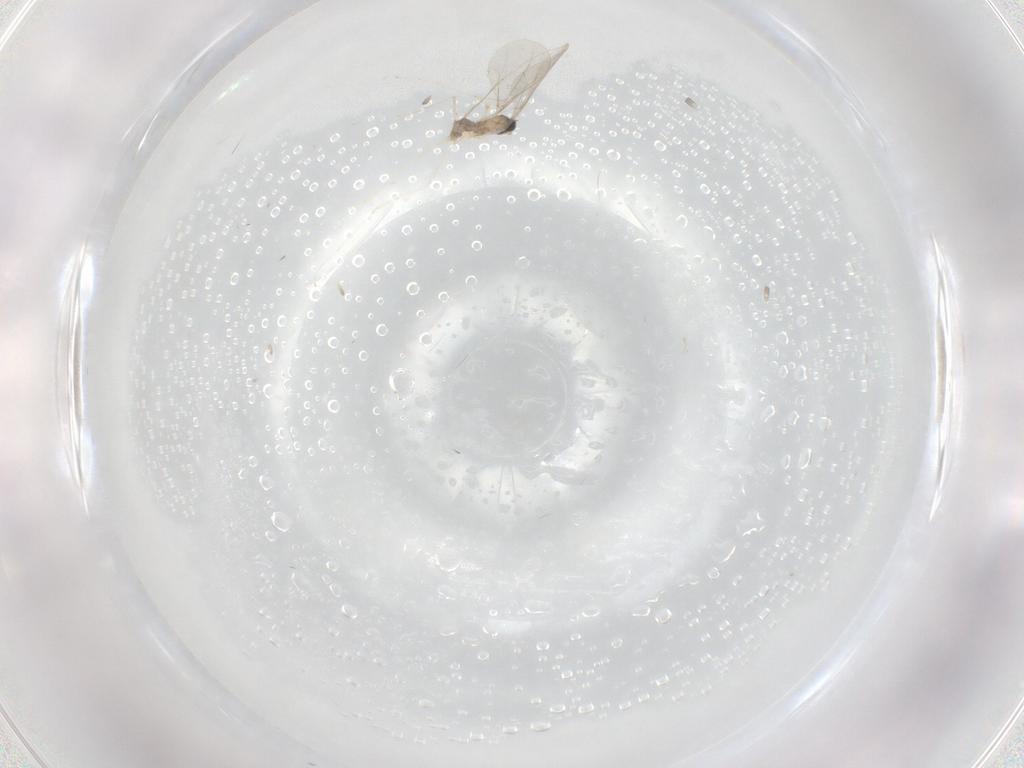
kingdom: Animalia
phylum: Arthropoda
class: Insecta
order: Diptera
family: Cecidomyiidae
